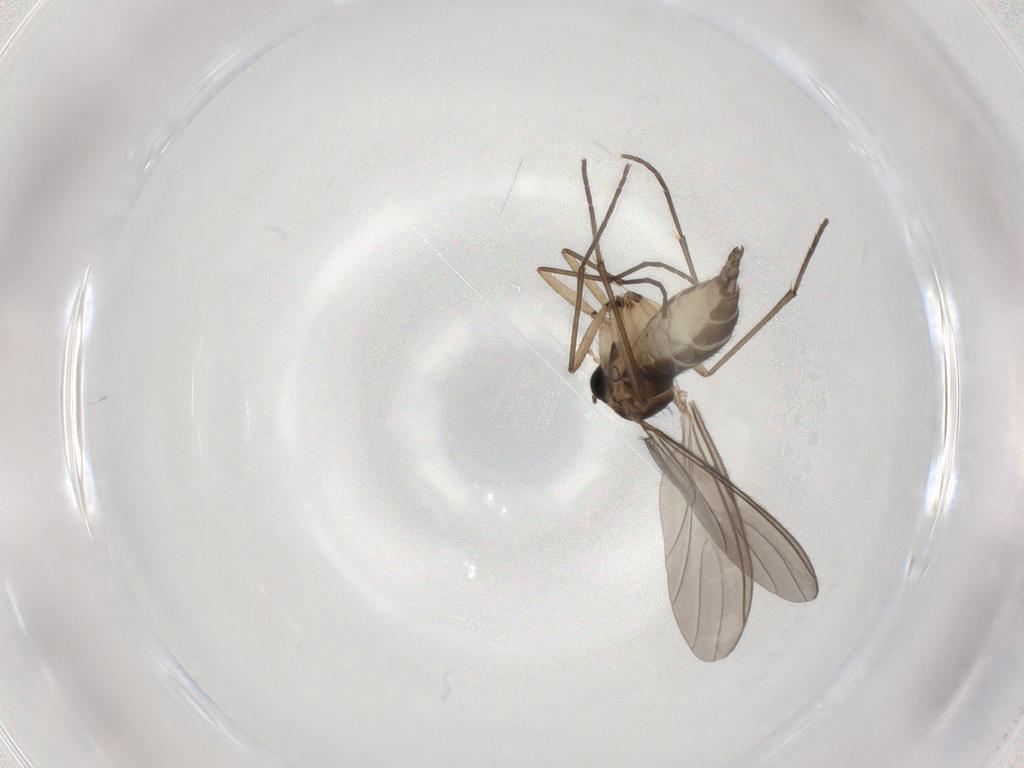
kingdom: Animalia
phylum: Arthropoda
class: Insecta
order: Diptera
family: Sciaridae
